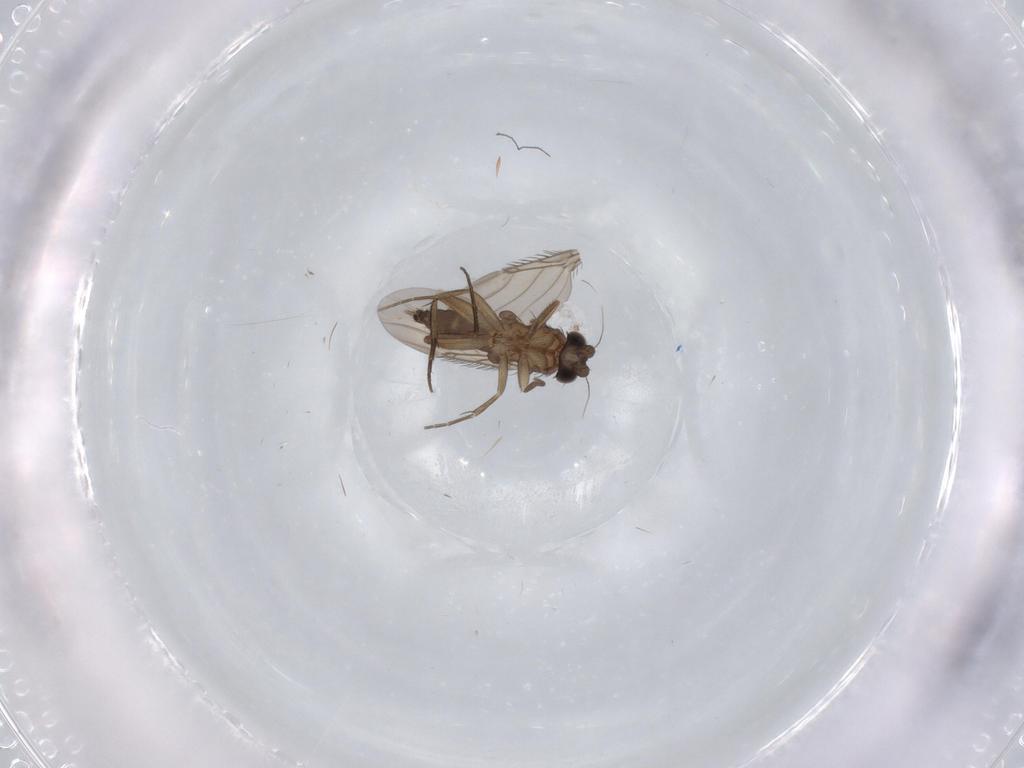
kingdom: Animalia
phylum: Arthropoda
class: Insecta
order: Diptera
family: Phoridae
